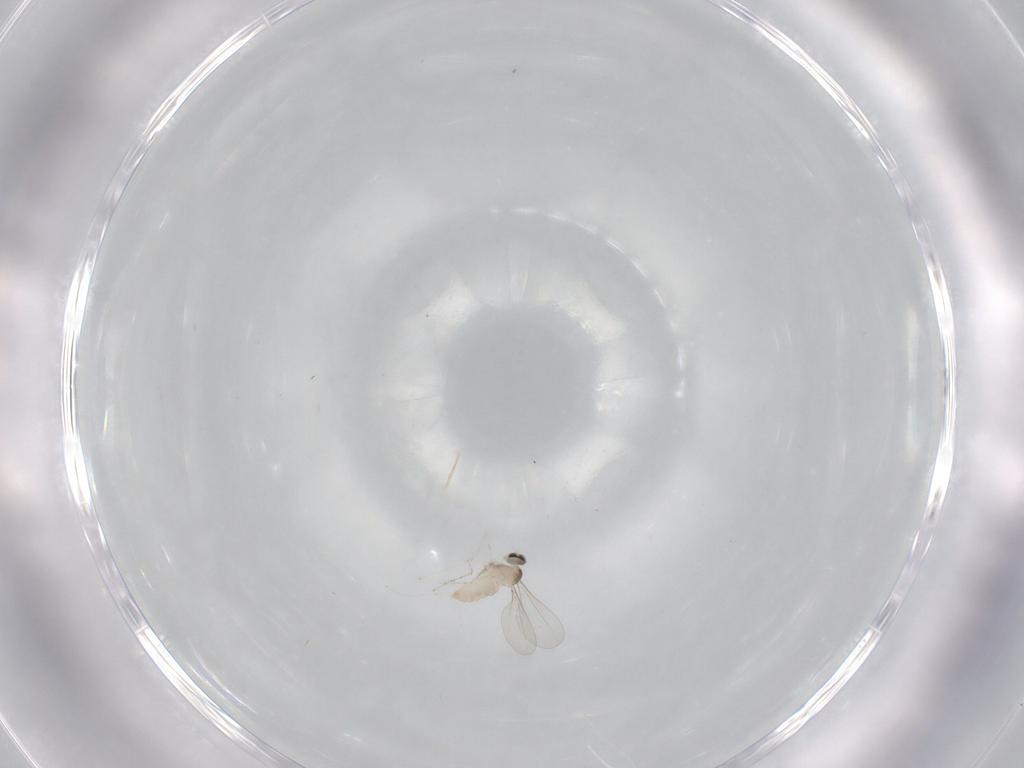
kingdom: Animalia
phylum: Arthropoda
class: Insecta
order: Diptera
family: Cecidomyiidae
